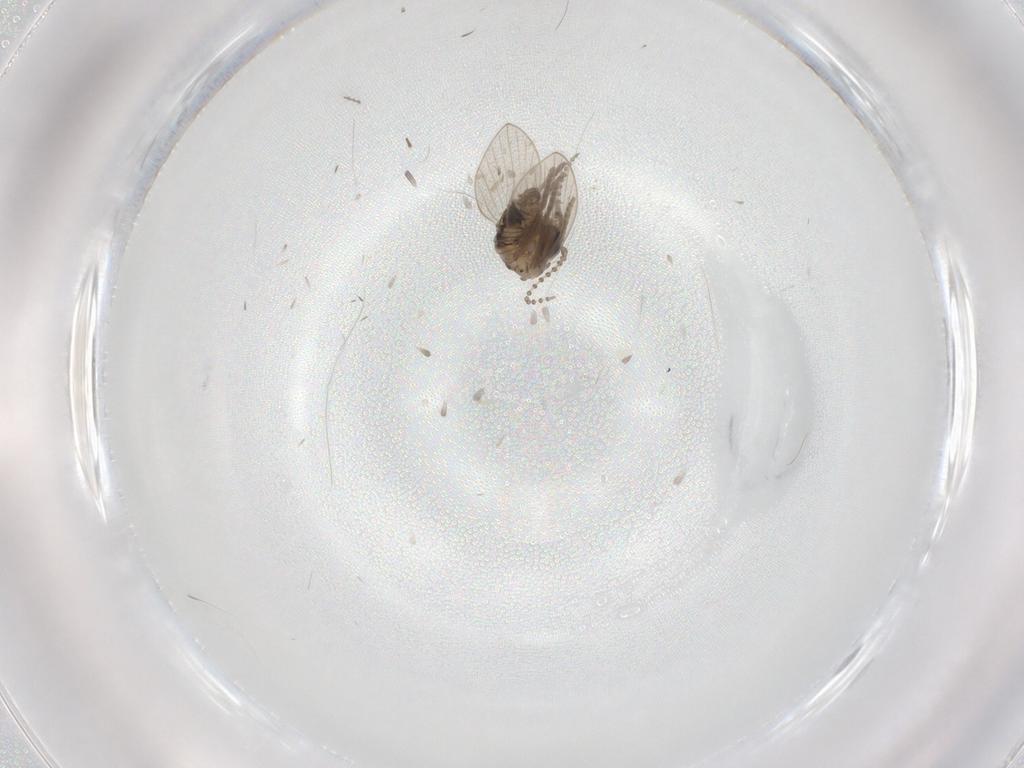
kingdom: Animalia
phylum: Arthropoda
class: Insecta
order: Diptera
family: Psychodidae
